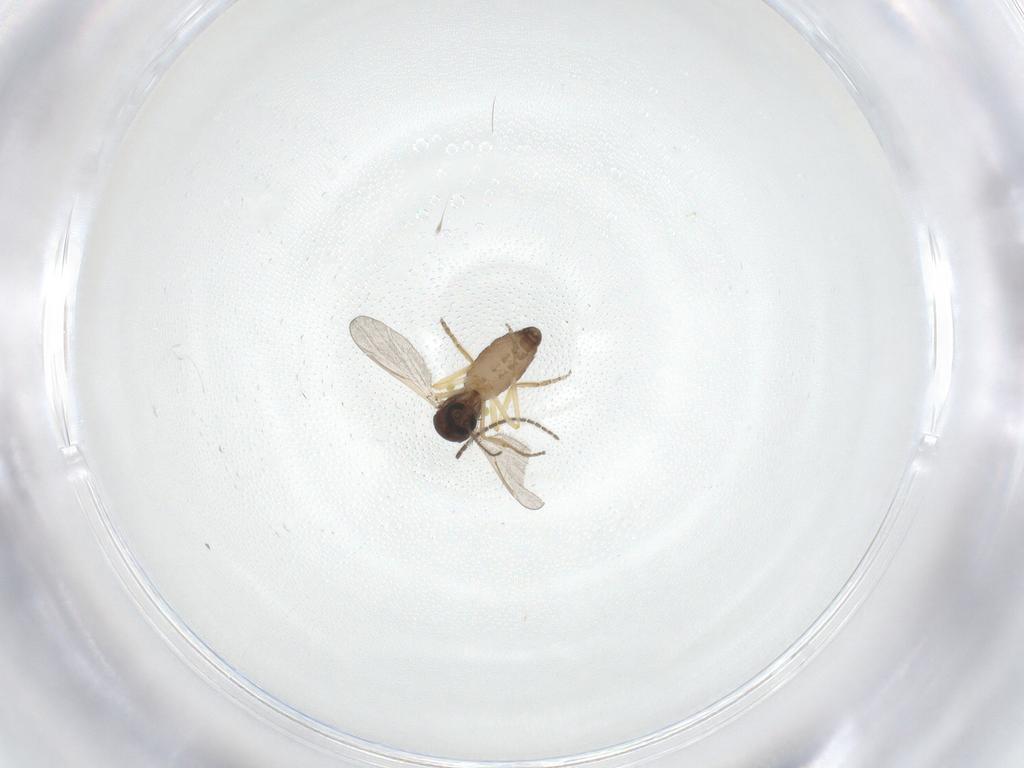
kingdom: Animalia
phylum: Arthropoda
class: Insecta
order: Diptera
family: Ceratopogonidae
